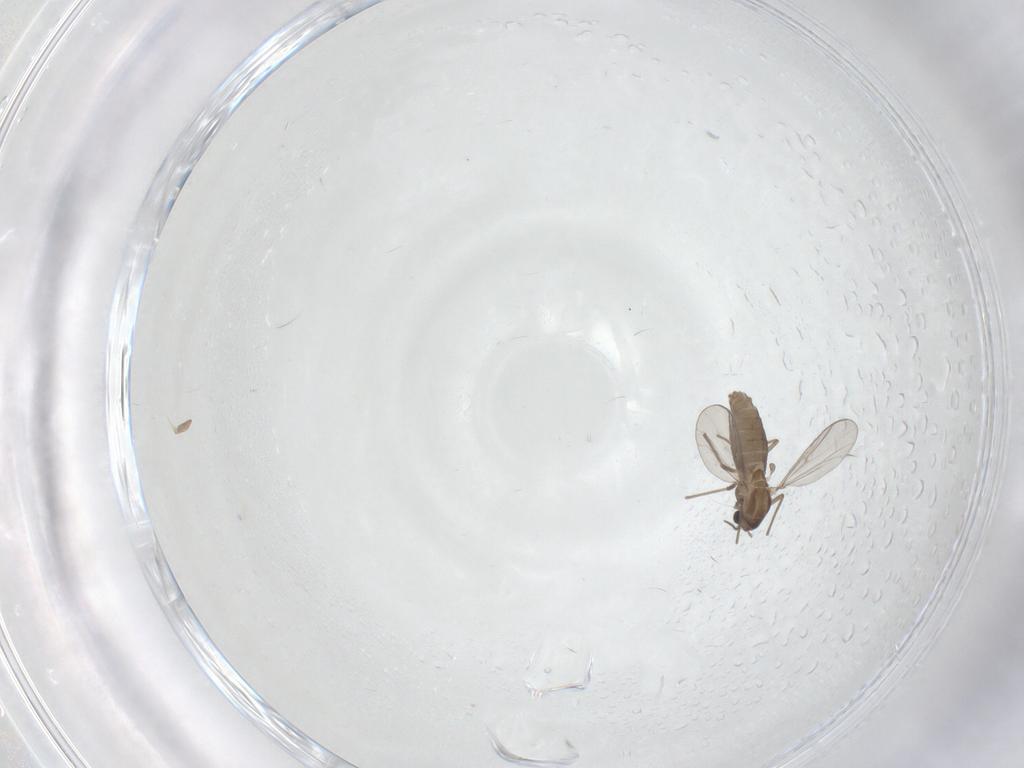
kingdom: Animalia
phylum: Arthropoda
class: Insecta
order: Diptera
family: Chironomidae
